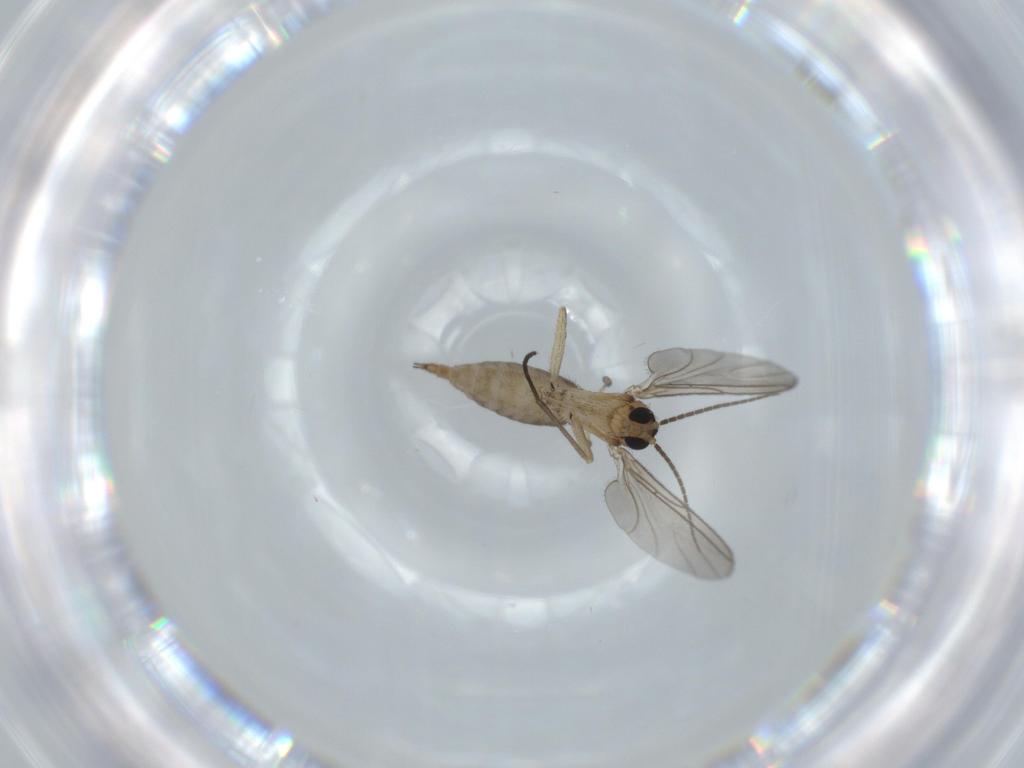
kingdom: Animalia
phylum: Arthropoda
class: Insecta
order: Diptera
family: Sciaridae
